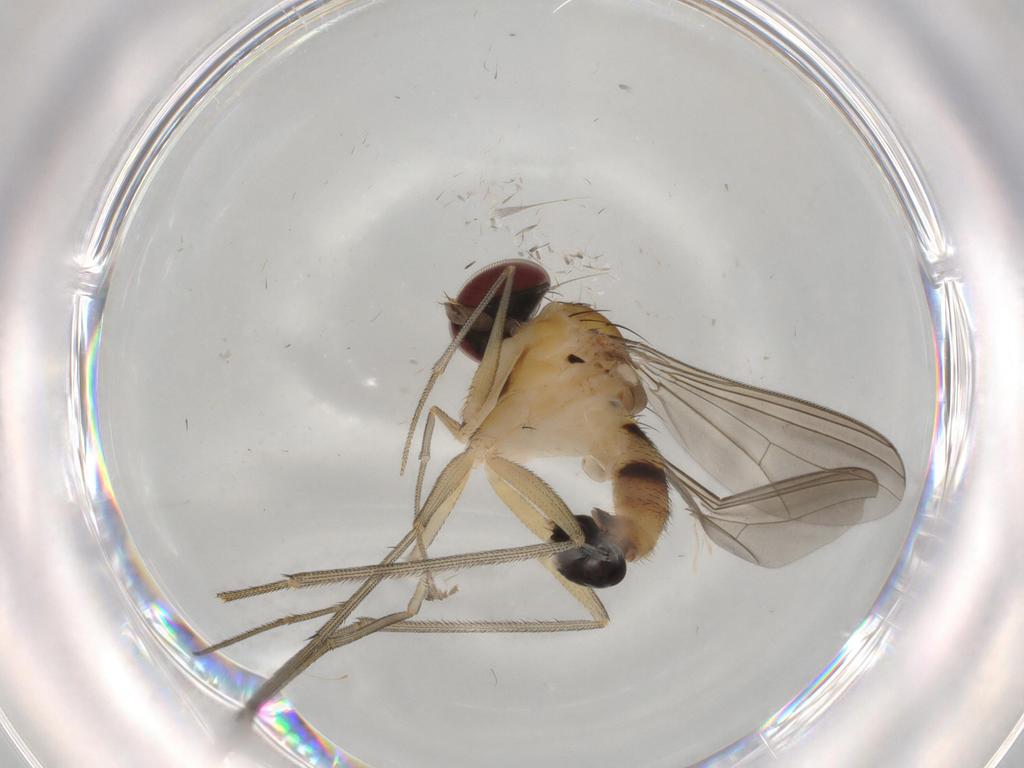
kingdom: Animalia
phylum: Arthropoda
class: Insecta
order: Diptera
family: Dolichopodidae
